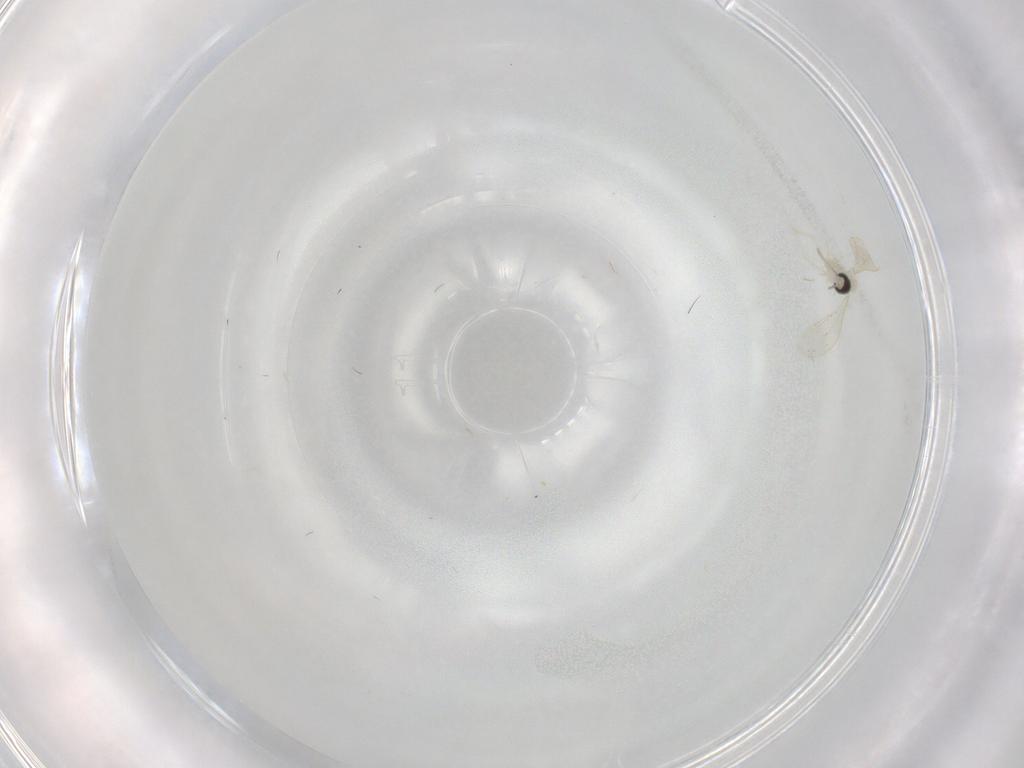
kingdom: Animalia
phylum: Arthropoda
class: Insecta
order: Diptera
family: Cecidomyiidae
